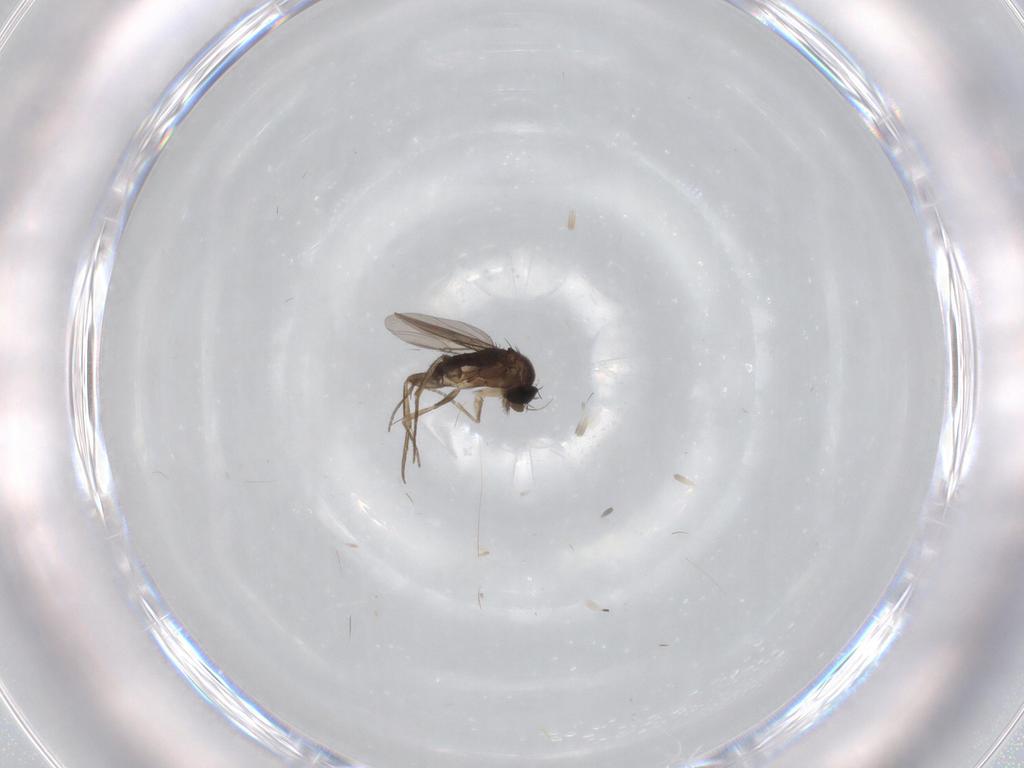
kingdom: Animalia
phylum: Arthropoda
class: Insecta
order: Diptera
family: Phoridae
